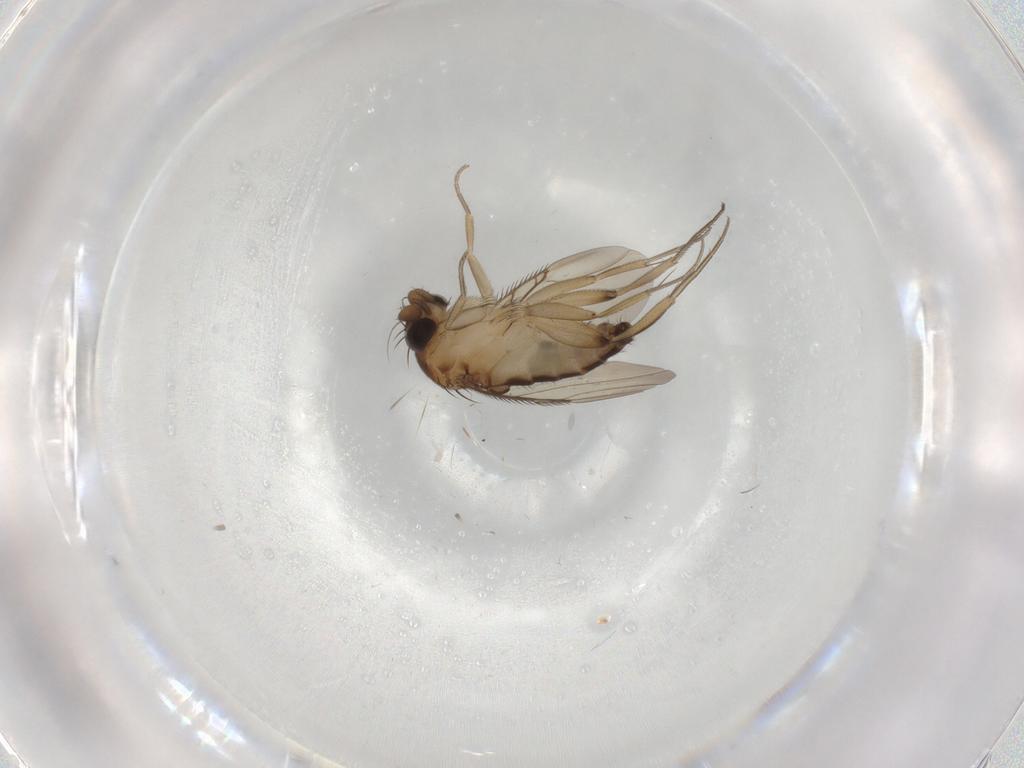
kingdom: Animalia
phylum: Arthropoda
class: Insecta
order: Diptera
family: Phoridae
